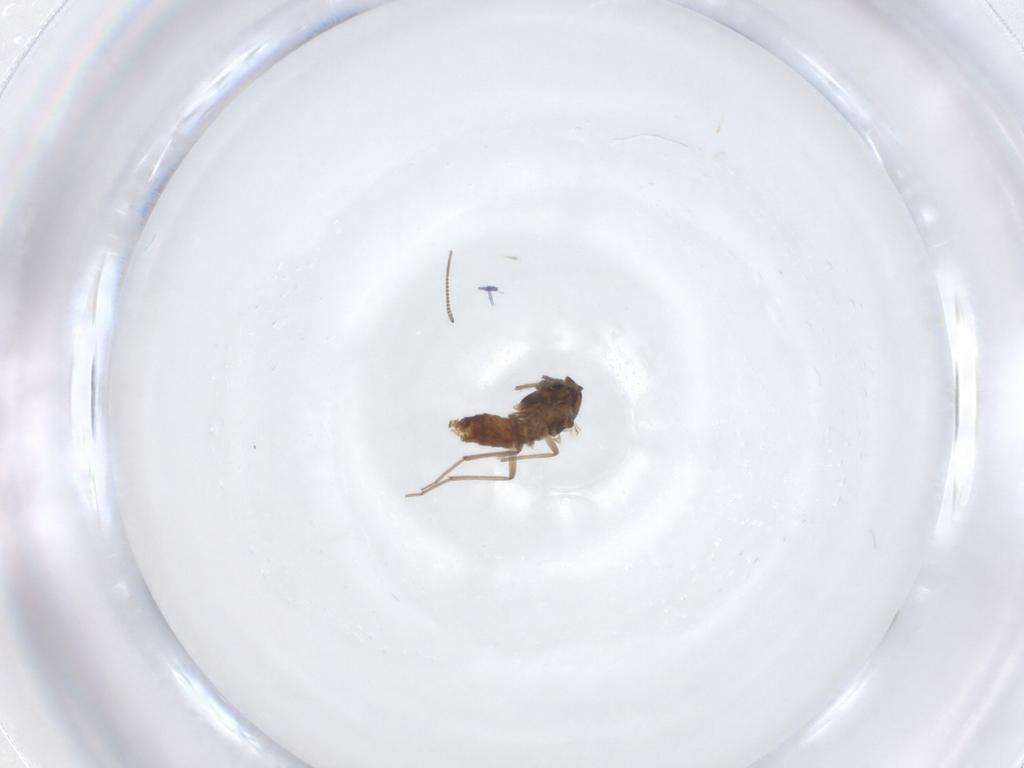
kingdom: Animalia
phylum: Arthropoda
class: Insecta
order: Diptera
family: Chironomidae
